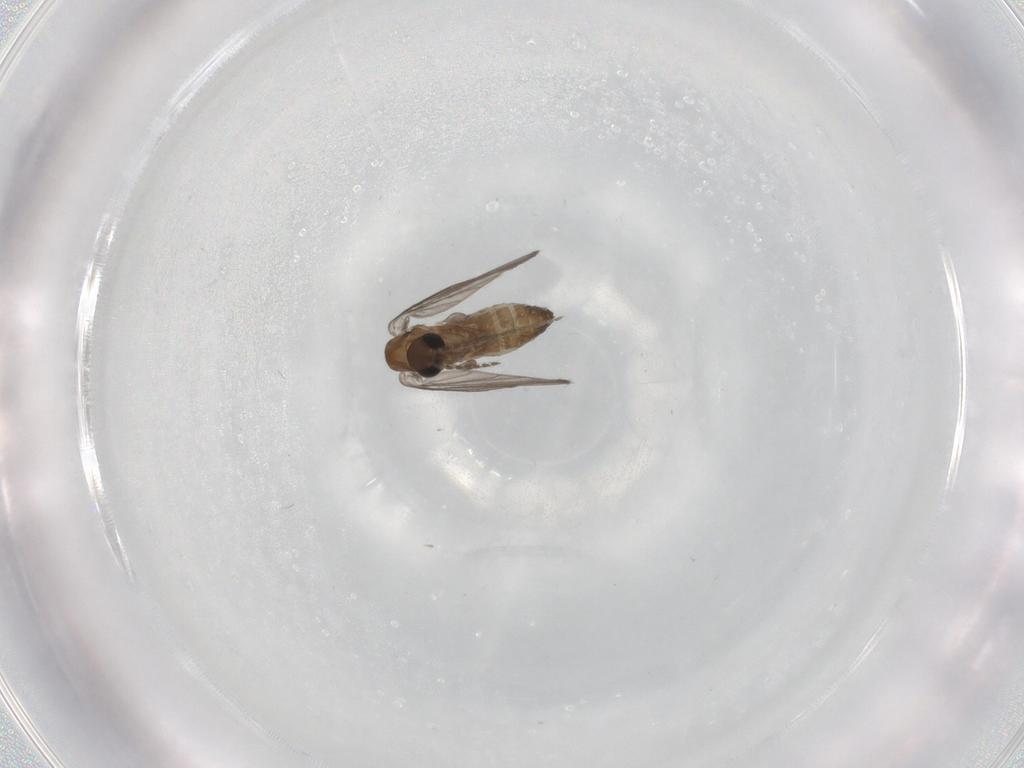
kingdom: Animalia
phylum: Arthropoda
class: Insecta
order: Diptera
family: Psychodidae
